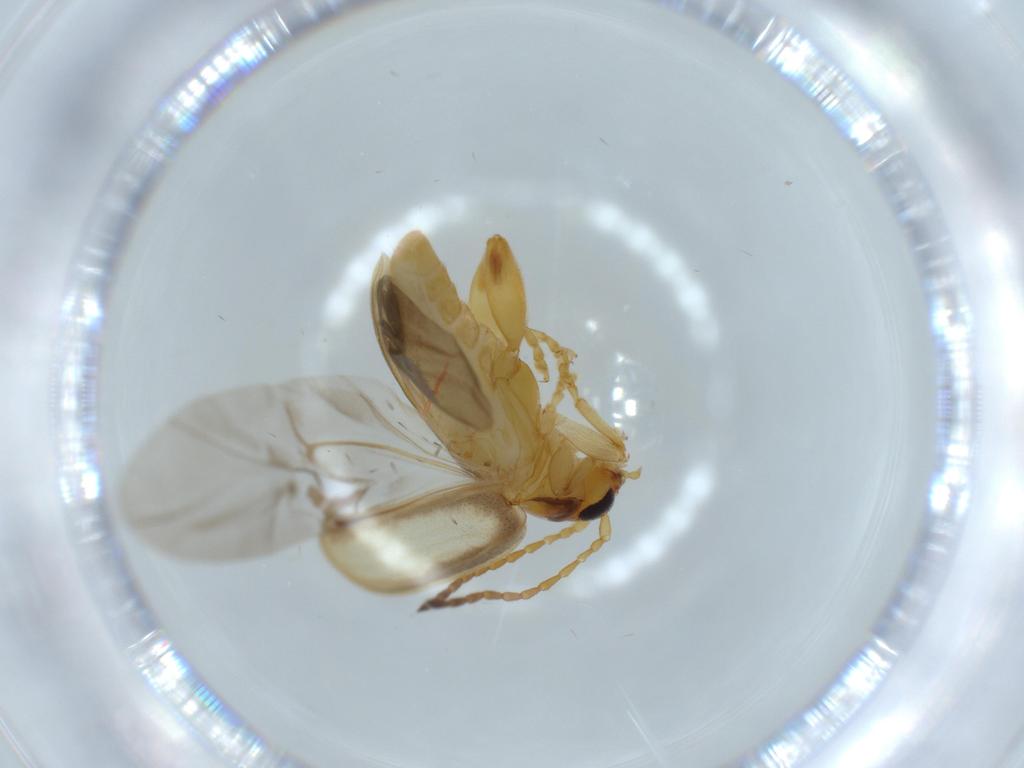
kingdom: Animalia
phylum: Arthropoda
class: Insecta
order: Coleoptera
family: Chrysomelidae
